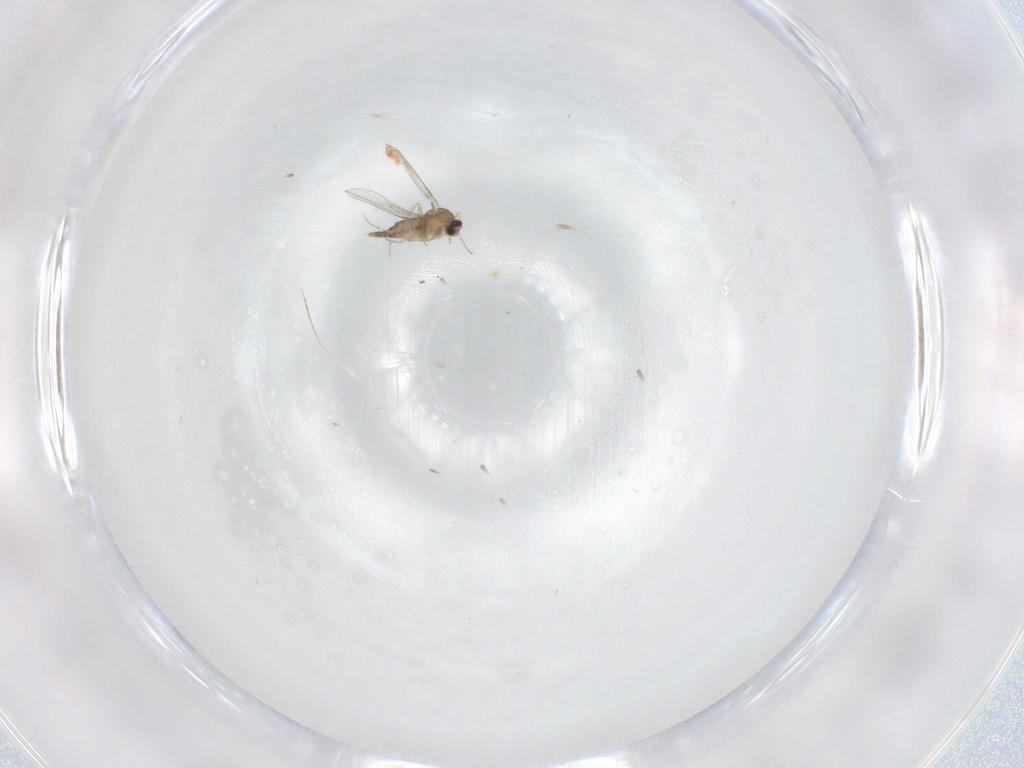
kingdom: Animalia
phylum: Arthropoda
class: Insecta
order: Diptera
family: Cecidomyiidae
